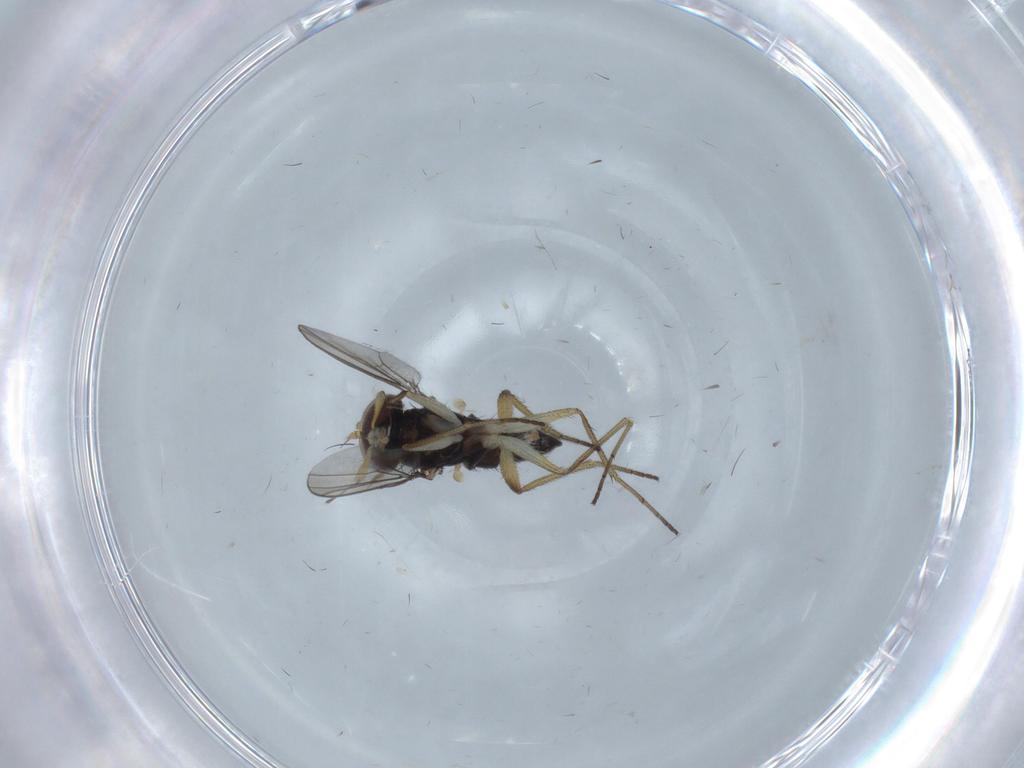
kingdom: Animalia
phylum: Arthropoda
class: Insecta
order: Diptera
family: Dolichopodidae
